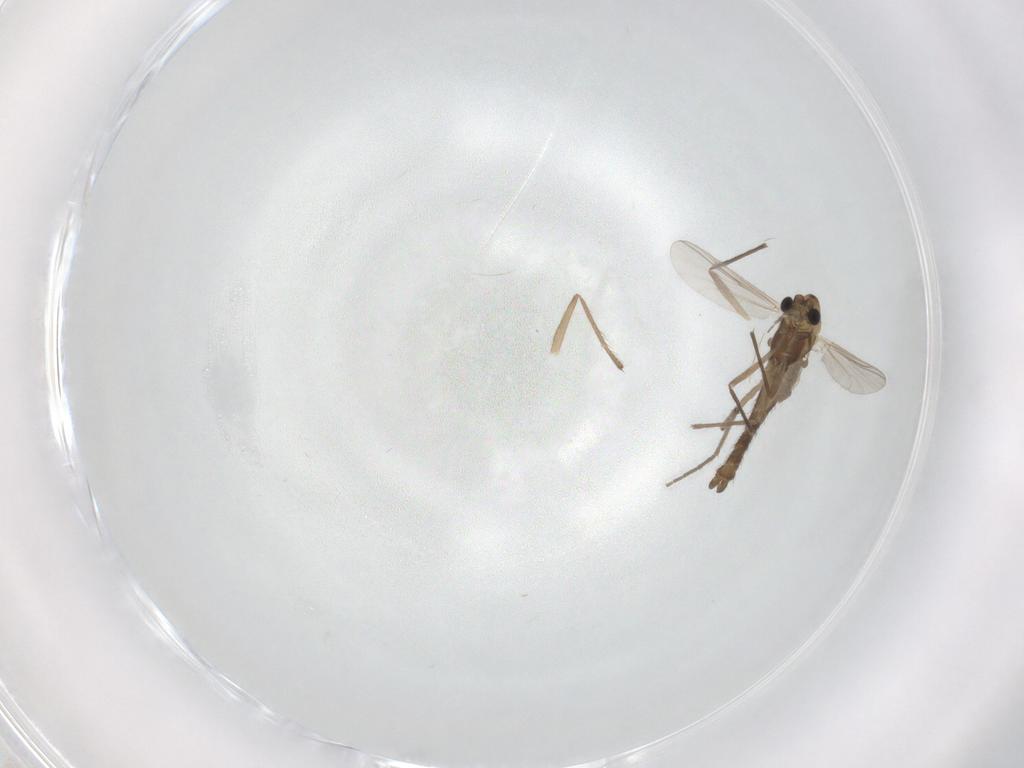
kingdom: Animalia
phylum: Arthropoda
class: Insecta
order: Diptera
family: Chironomidae
